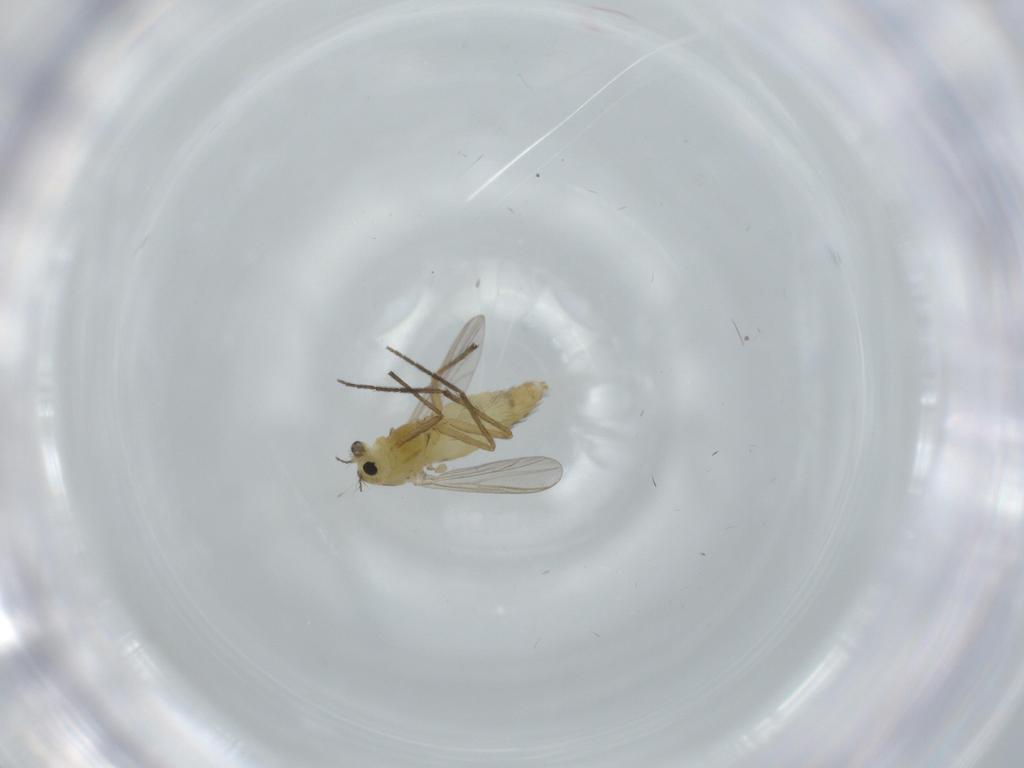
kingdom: Animalia
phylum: Arthropoda
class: Insecta
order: Diptera
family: Chironomidae
